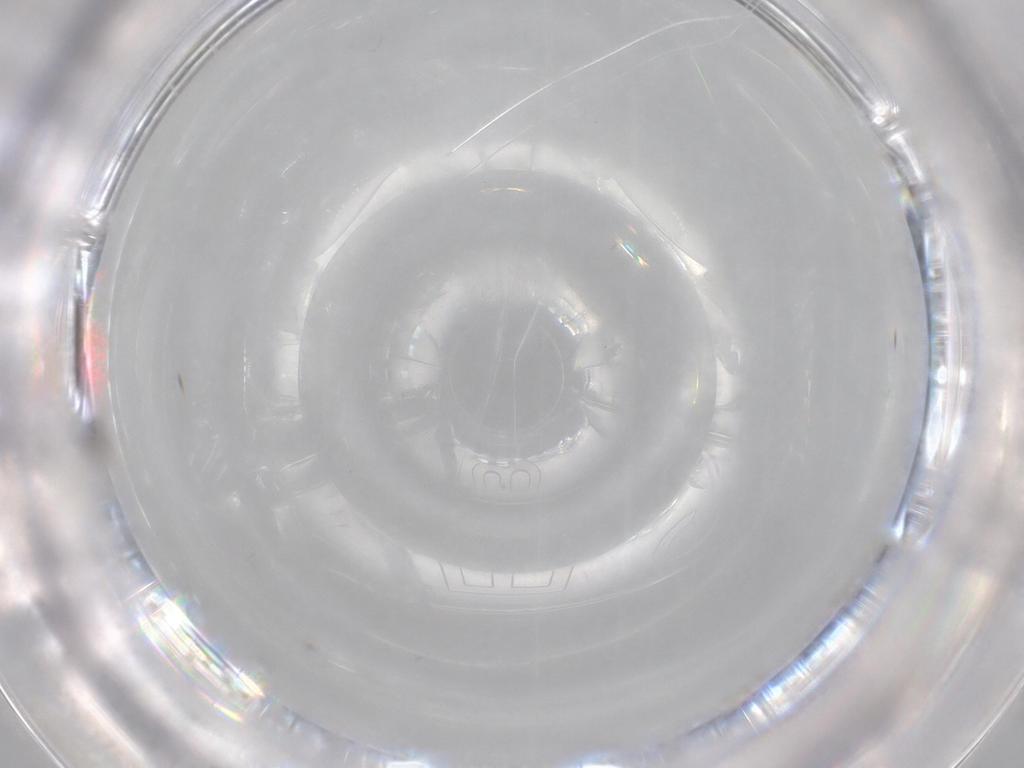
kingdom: Animalia
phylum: Arthropoda
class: Insecta
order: Diptera
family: Cecidomyiidae
